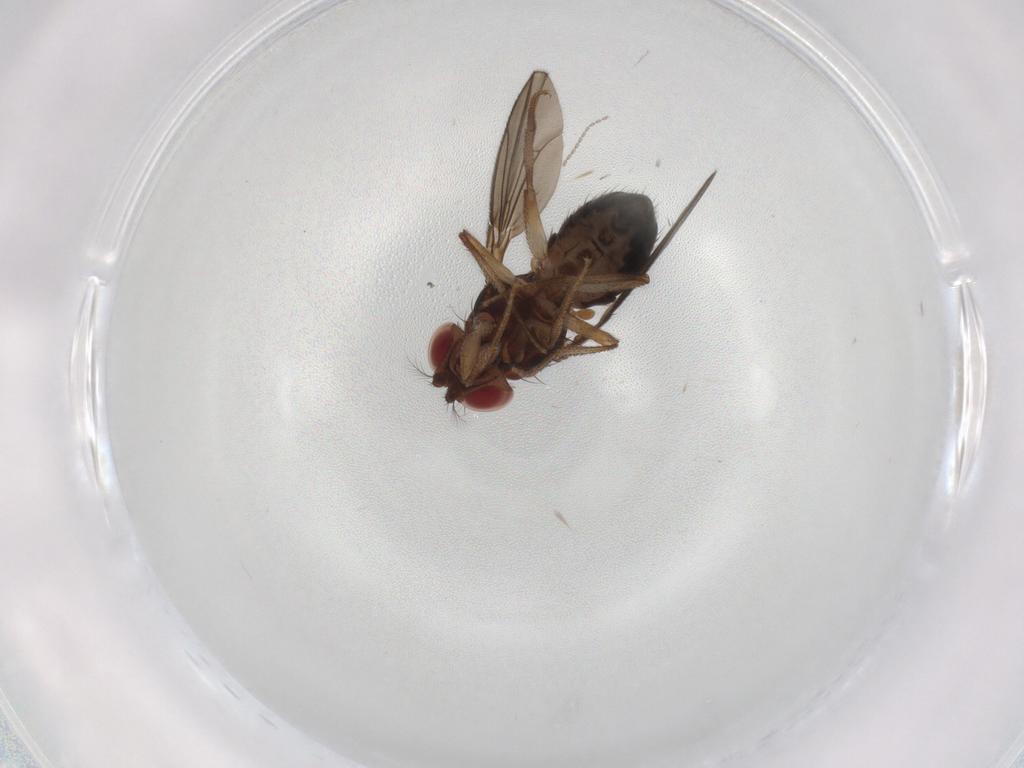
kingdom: Animalia
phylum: Arthropoda
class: Insecta
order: Diptera
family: Drosophilidae
